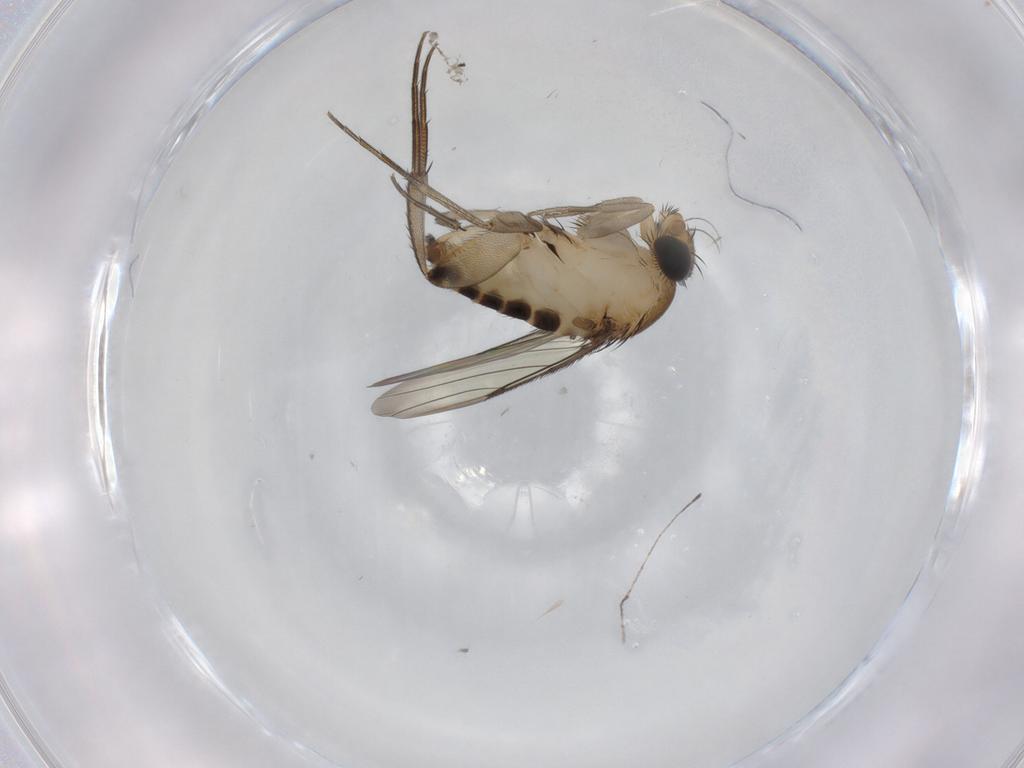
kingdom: Animalia
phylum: Arthropoda
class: Insecta
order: Diptera
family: Phoridae
